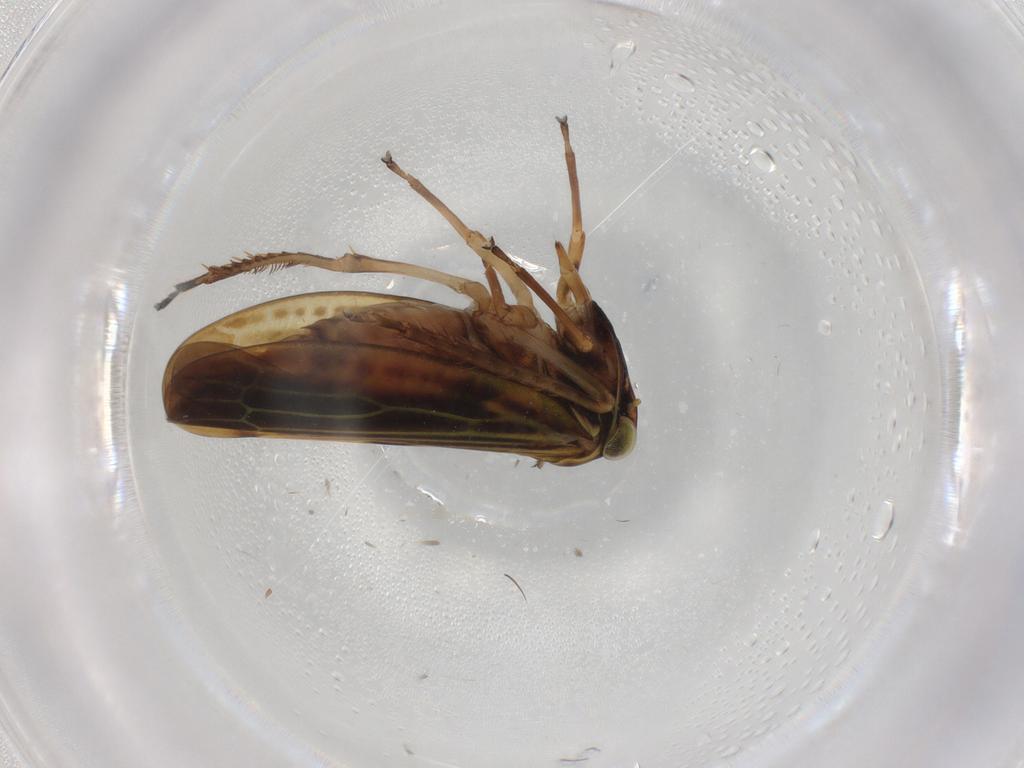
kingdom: Animalia
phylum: Arthropoda
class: Insecta
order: Hemiptera
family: Cicadellidae
